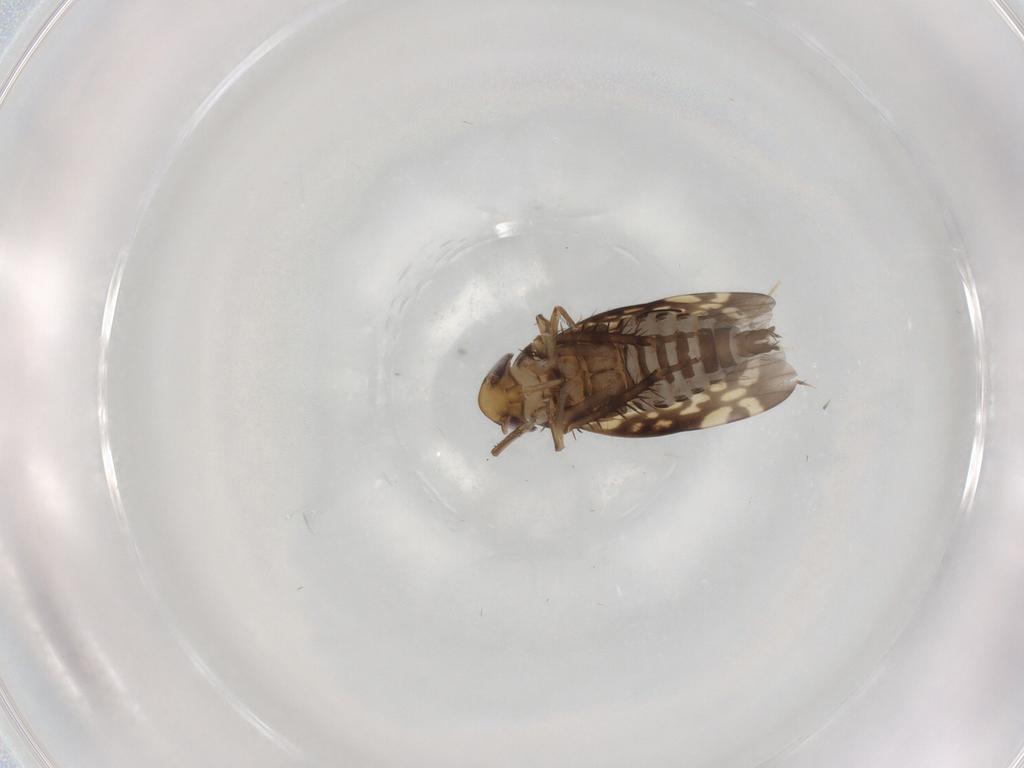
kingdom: Animalia
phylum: Arthropoda
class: Insecta
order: Hemiptera
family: Cicadellidae
